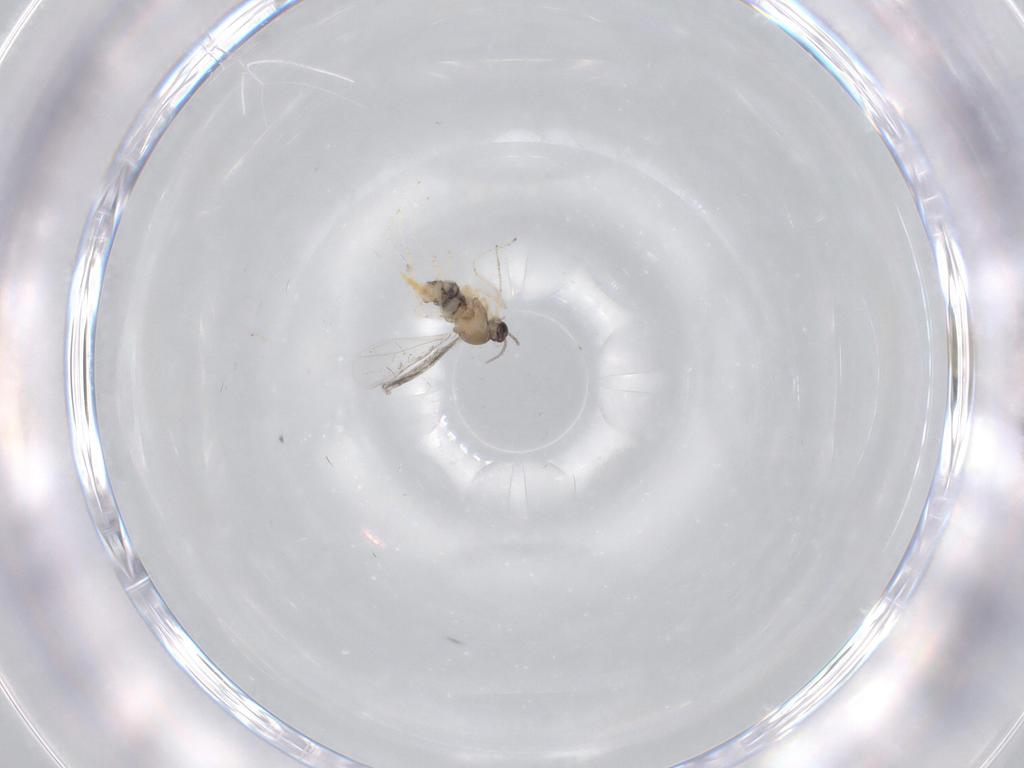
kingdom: Animalia
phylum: Arthropoda
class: Insecta
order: Diptera
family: Cecidomyiidae
